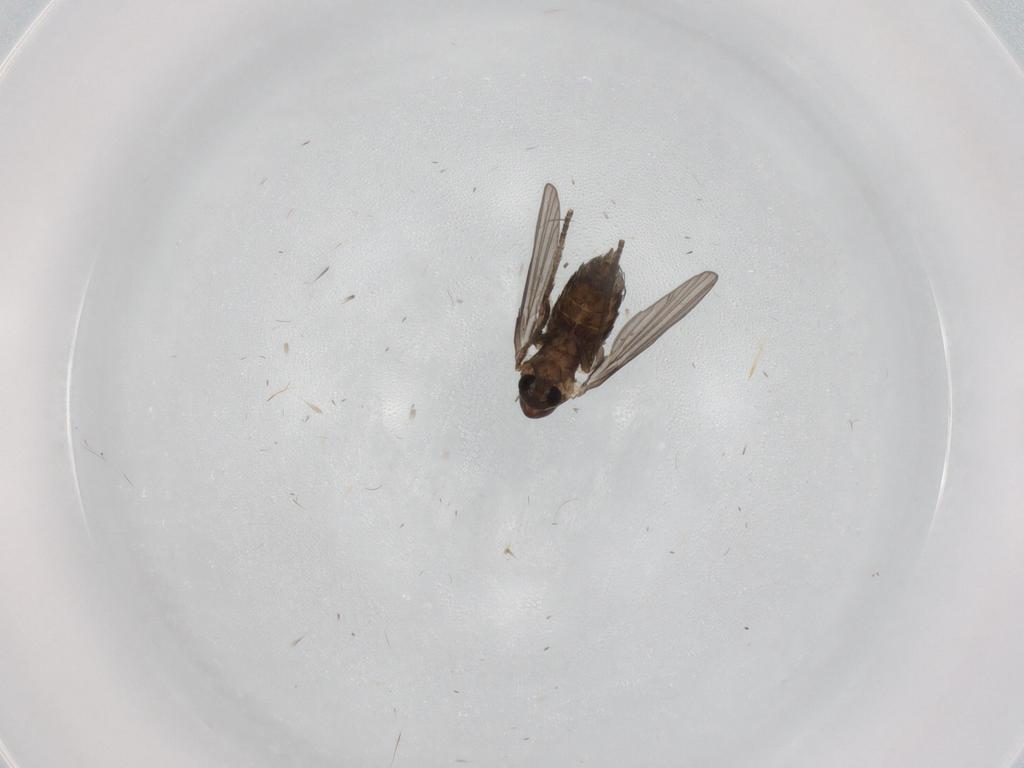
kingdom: Animalia
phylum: Arthropoda
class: Insecta
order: Diptera
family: Psychodidae
